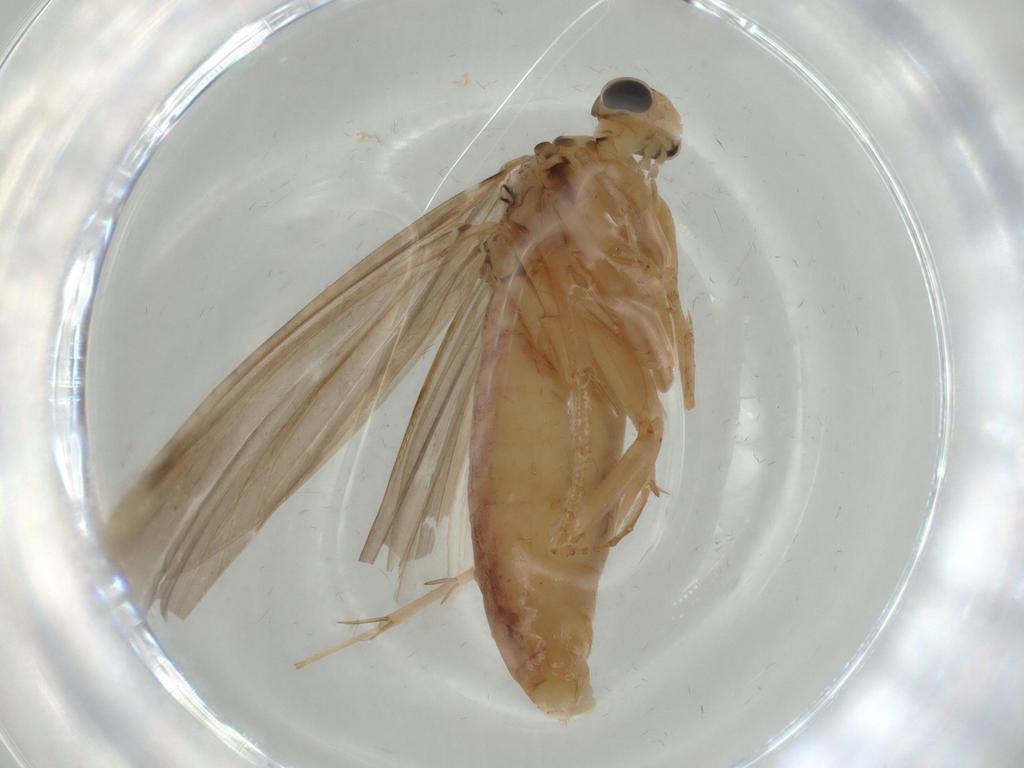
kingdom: Animalia
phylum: Arthropoda
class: Insecta
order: Trichoptera
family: Ecnomidae
